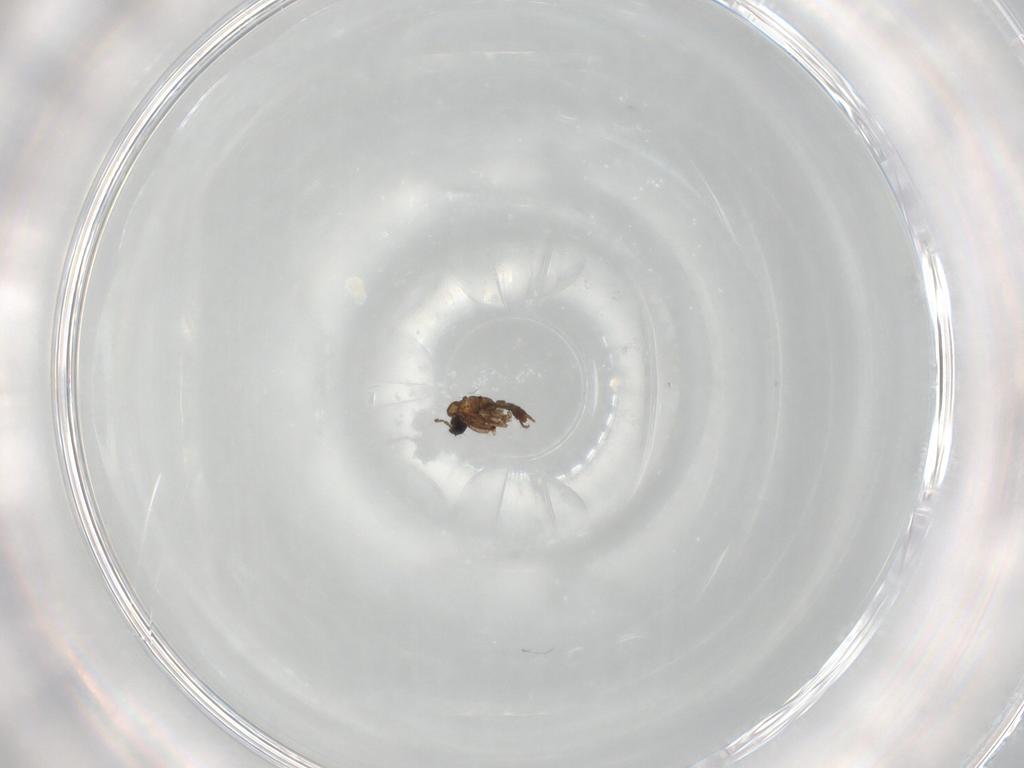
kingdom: Animalia
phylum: Arthropoda
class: Insecta
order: Diptera
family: Sciaridae
